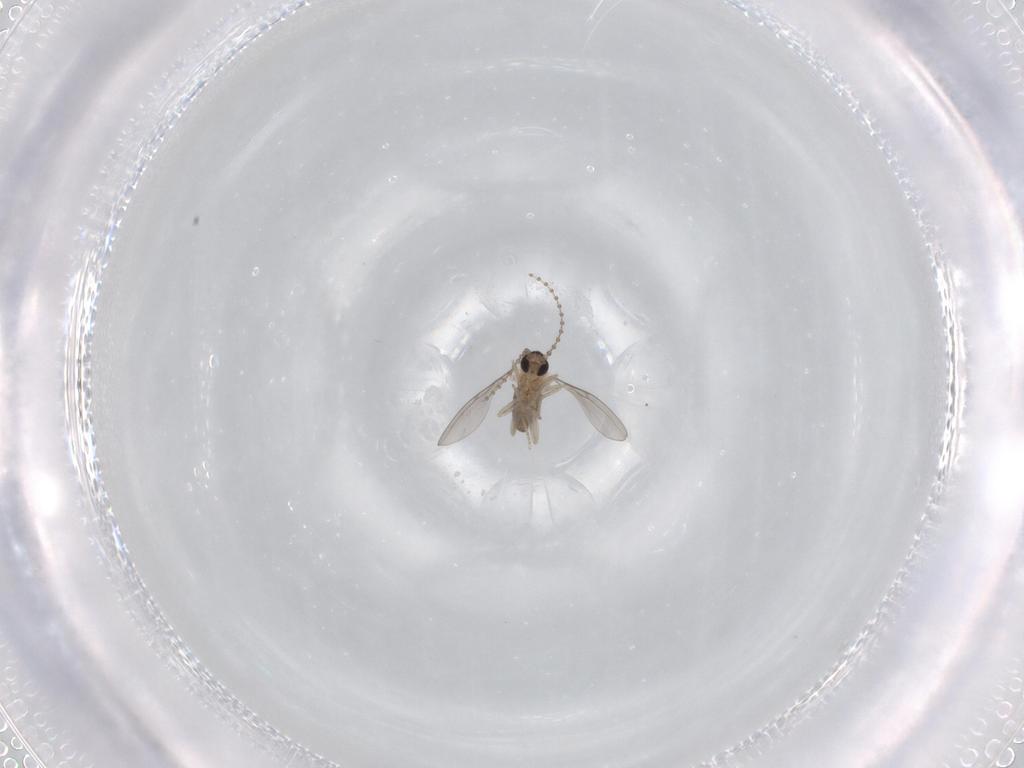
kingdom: Animalia
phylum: Arthropoda
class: Insecta
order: Diptera
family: Cecidomyiidae
